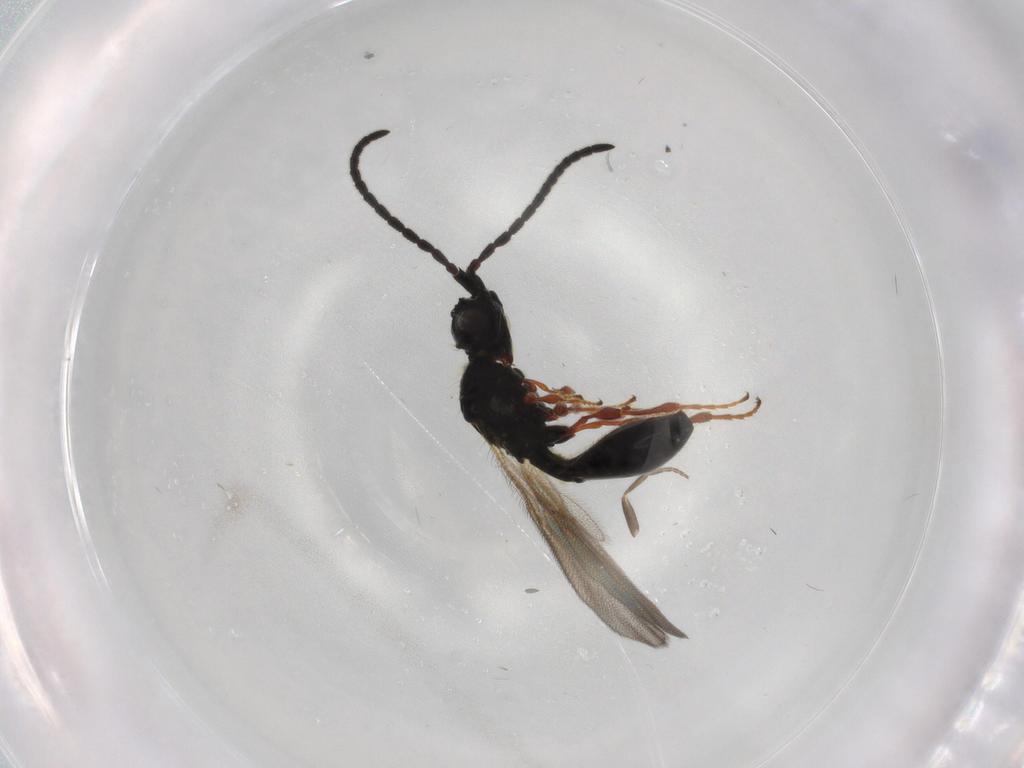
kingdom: Animalia
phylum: Arthropoda
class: Insecta
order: Hymenoptera
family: Diapriidae
